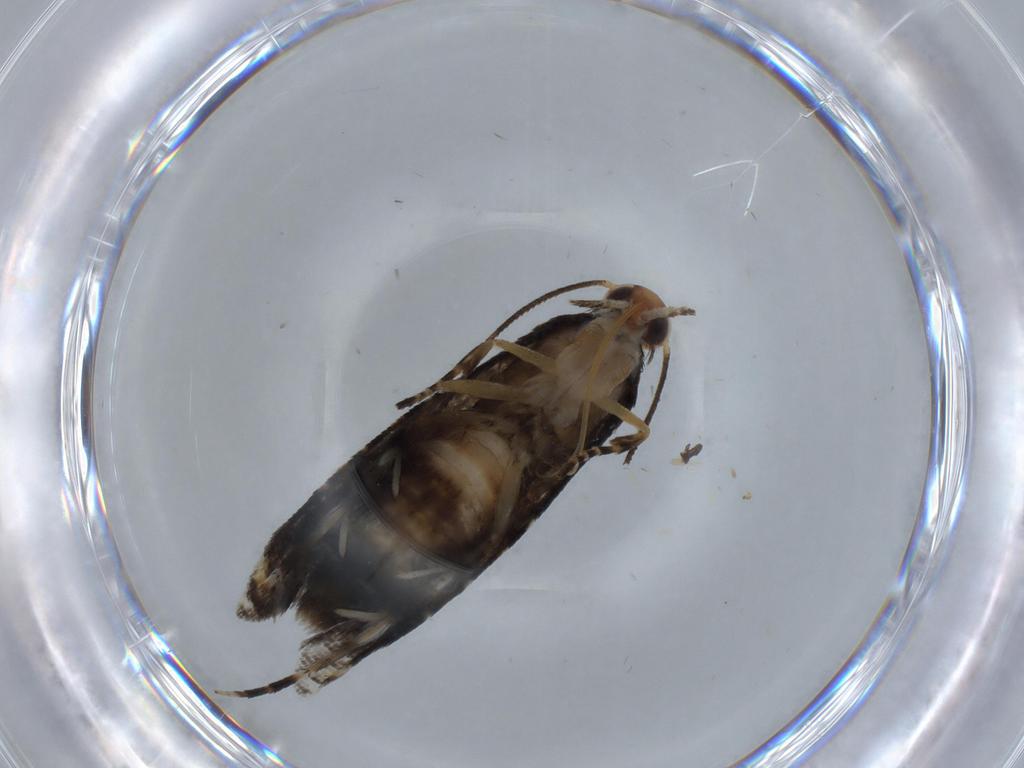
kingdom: Animalia
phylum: Arthropoda
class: Insecta
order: Lepidoptera
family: Glyphipterigidae
